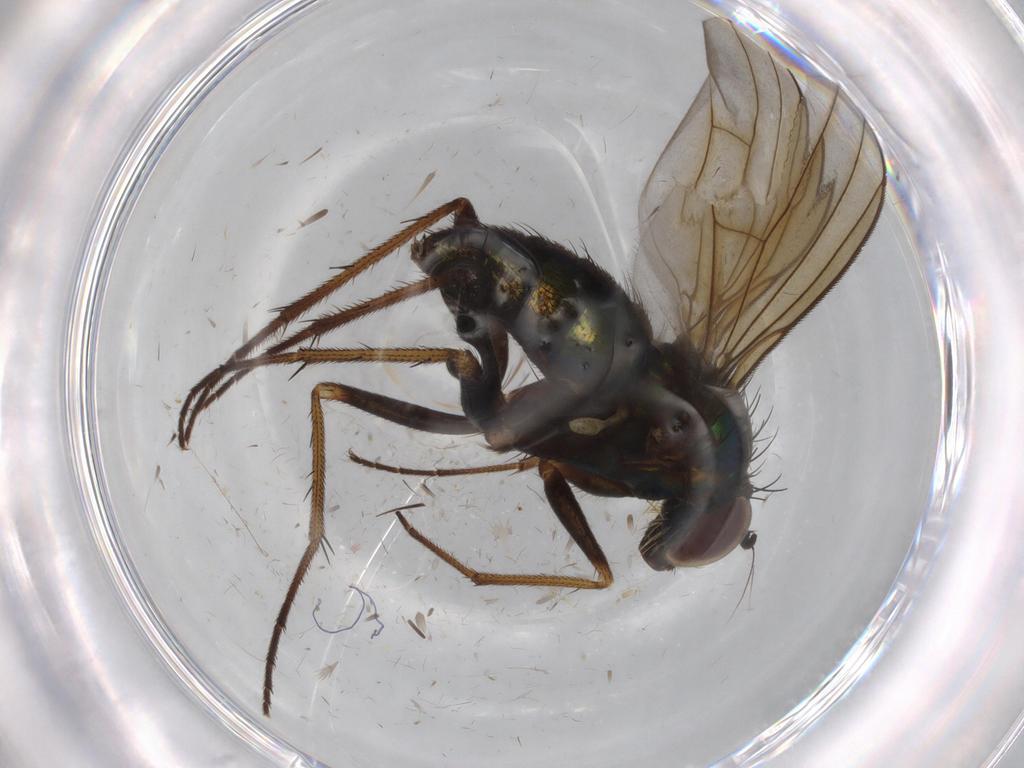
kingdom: Animalia
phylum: Arthropoda
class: Insecta
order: Diptera
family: Dolichopodidae
